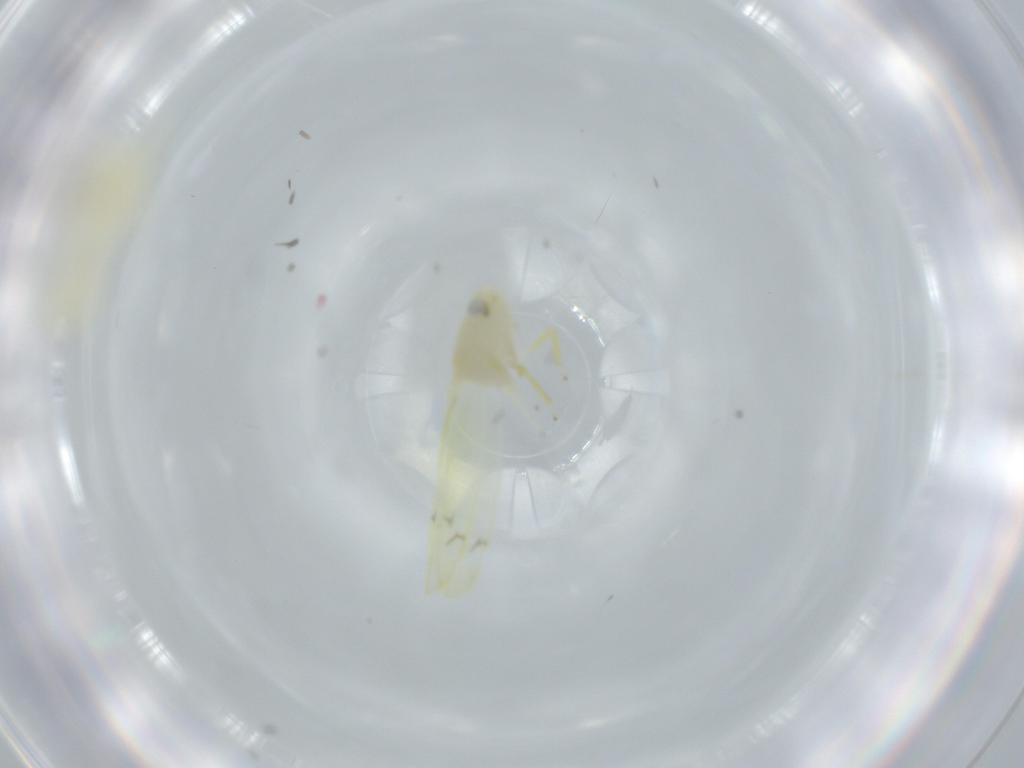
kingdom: Animalia
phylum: Arthropoda
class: Insecta
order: Hemiptera
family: Cicadellidae
